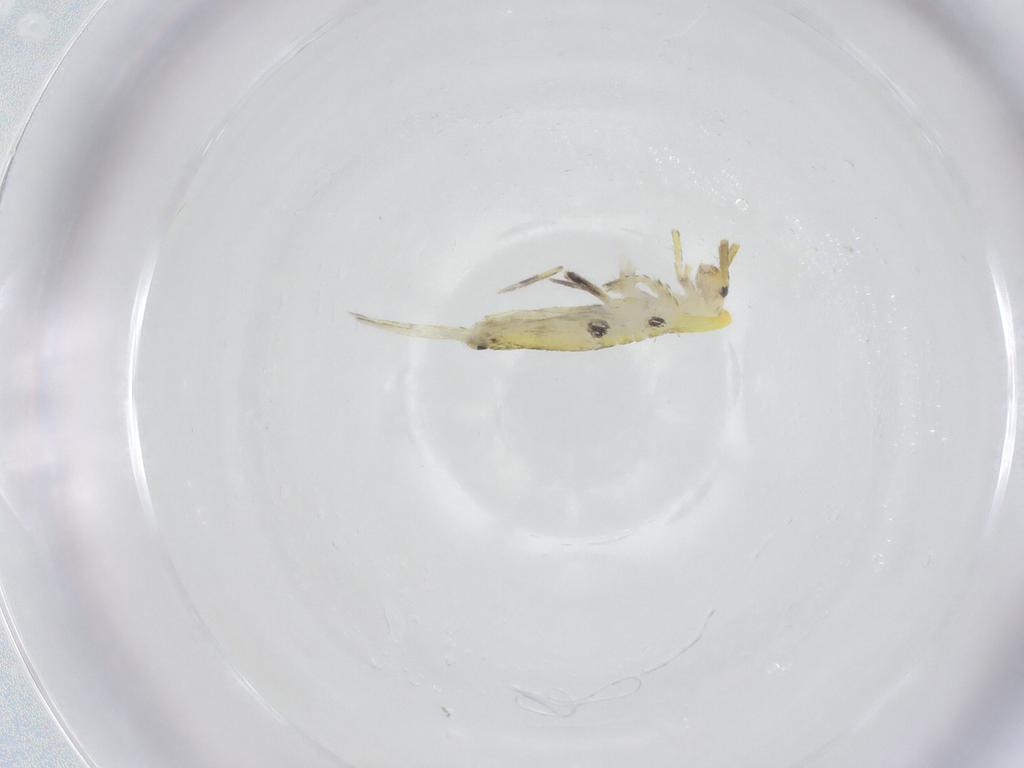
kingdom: Animalia
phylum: Arthropoda
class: Collembola
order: Entomobryomorpha
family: Entomobryidae
